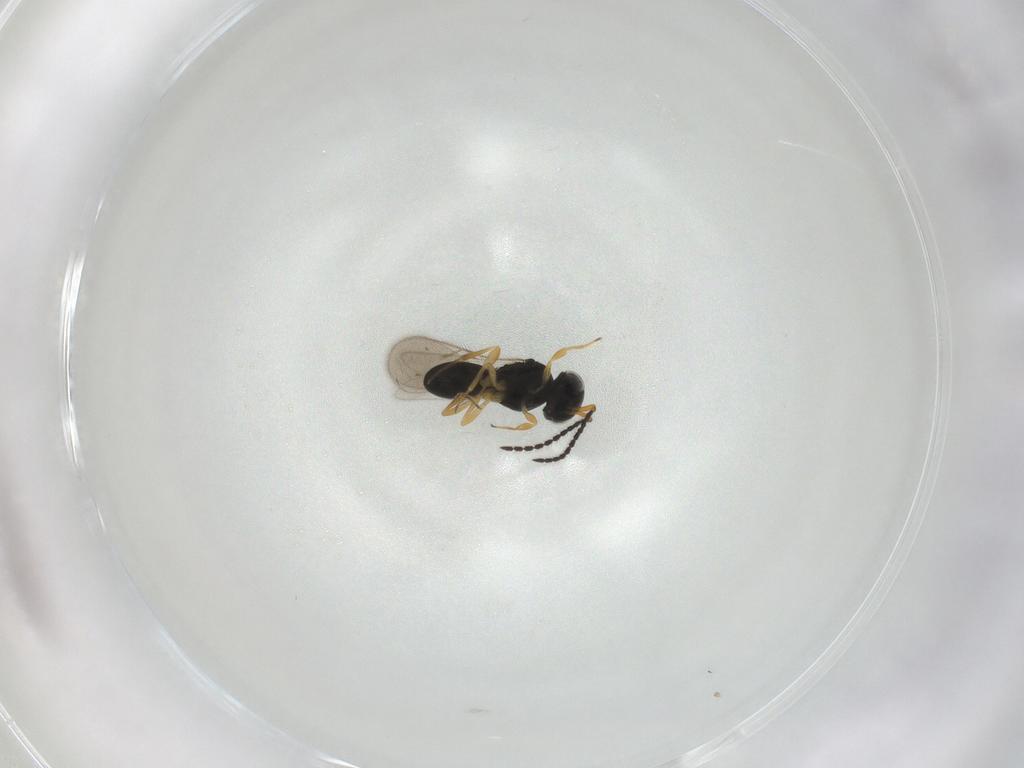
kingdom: Animalia
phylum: Arthropoda
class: Insecta
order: Hymenoptera
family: Scelionidae
